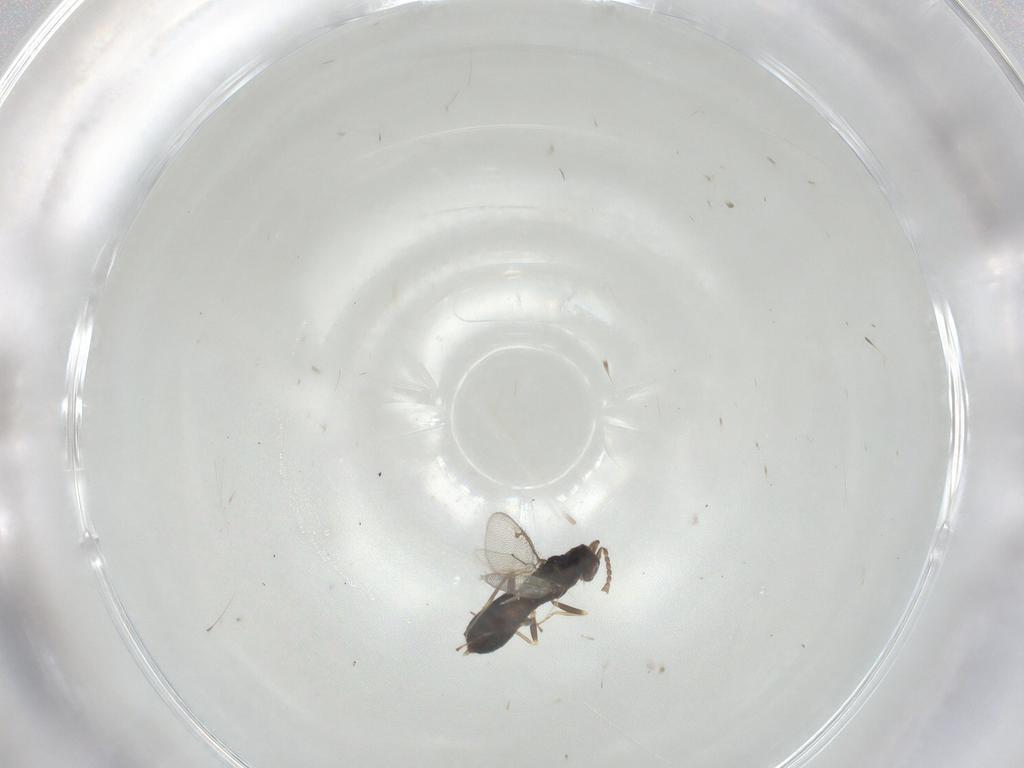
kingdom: Animalia
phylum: Arthropoda
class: Insecta
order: Hymenoptera
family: Eulophidae
